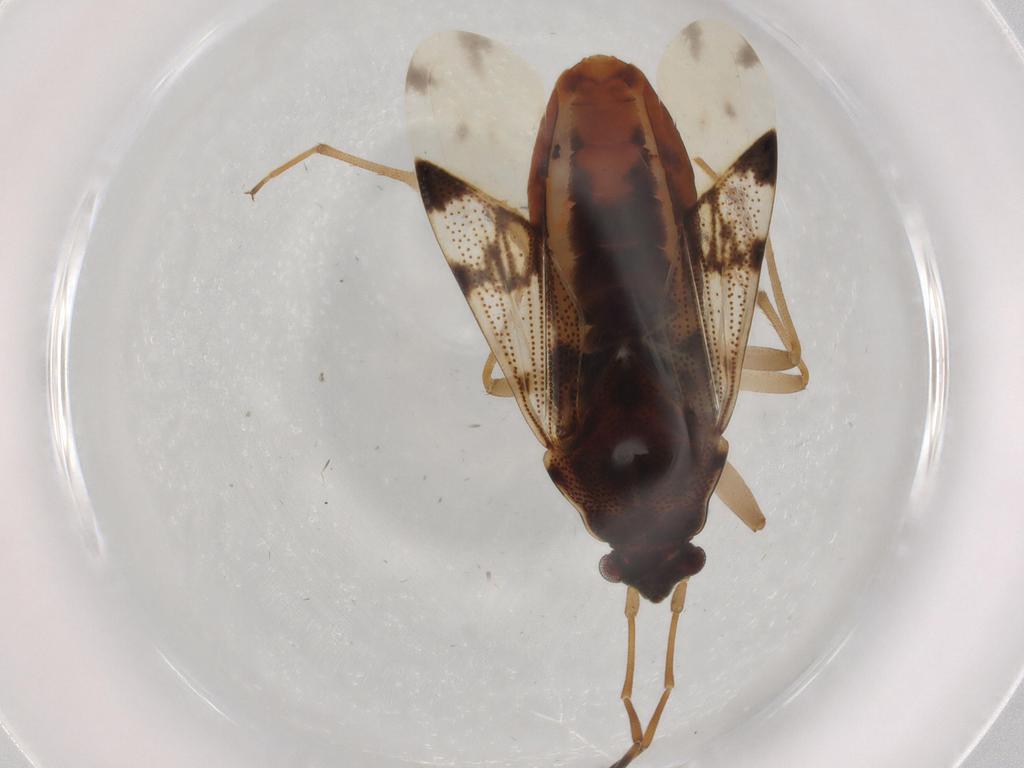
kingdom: Animalia
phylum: Arthropoda
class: Insecta
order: Hemiptera
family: Rhyparochromidae
